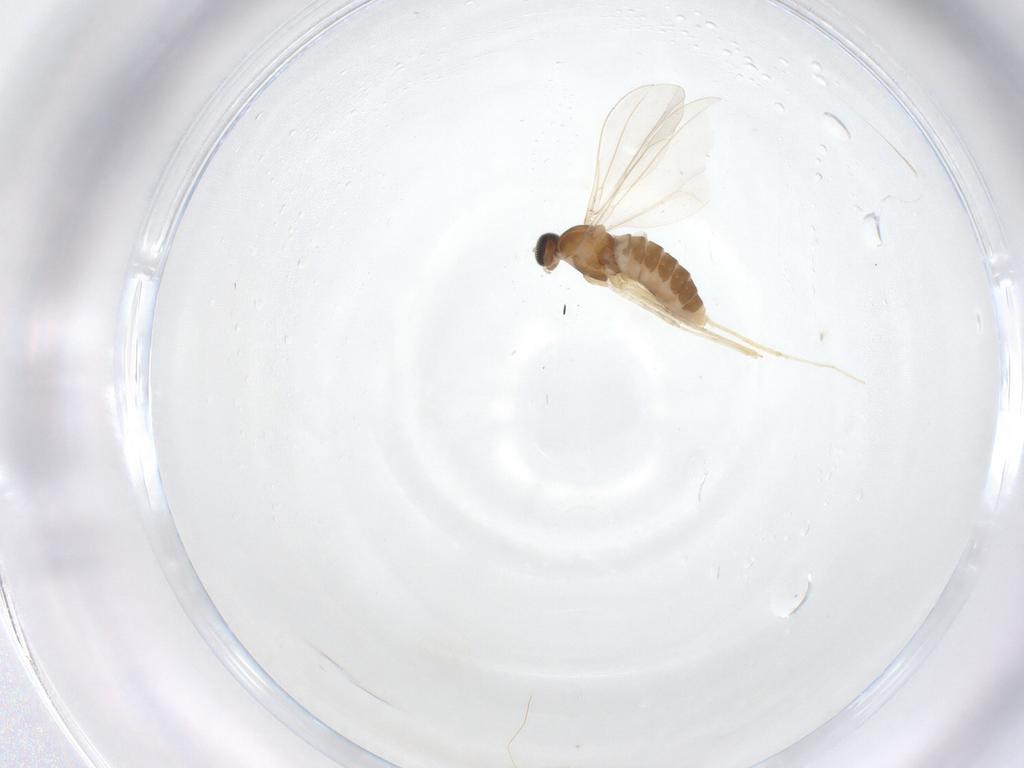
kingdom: Animalia
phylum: Arthropoda
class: Insecta
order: Diptera
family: Cecidomyiidae
